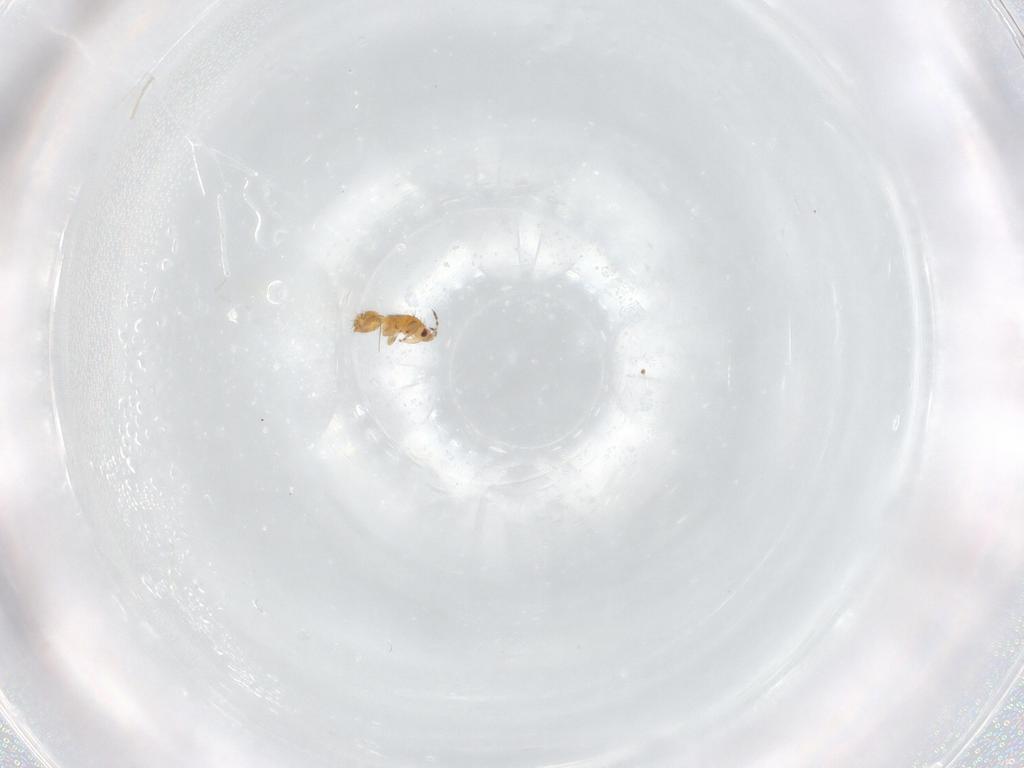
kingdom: Animalia
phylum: Arthropoda
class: Insecta
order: Thysanoptera
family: Thripidae
